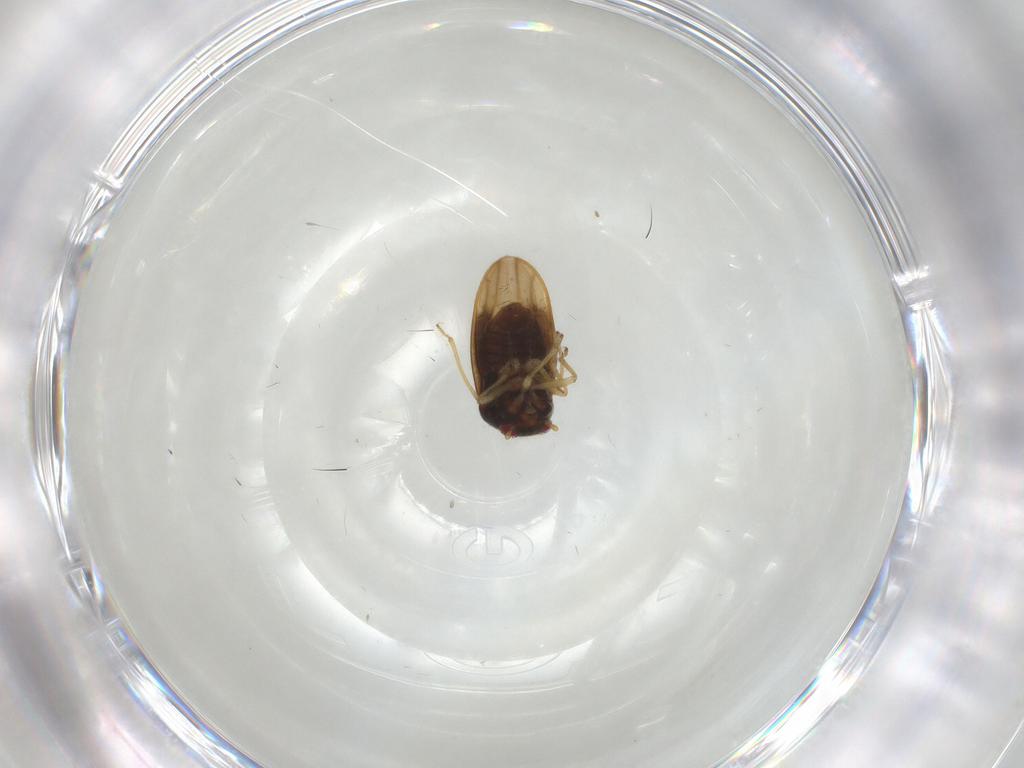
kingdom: Animalia
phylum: Arthropoda
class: Insecta
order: Hemiptera
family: Schizopteridae
